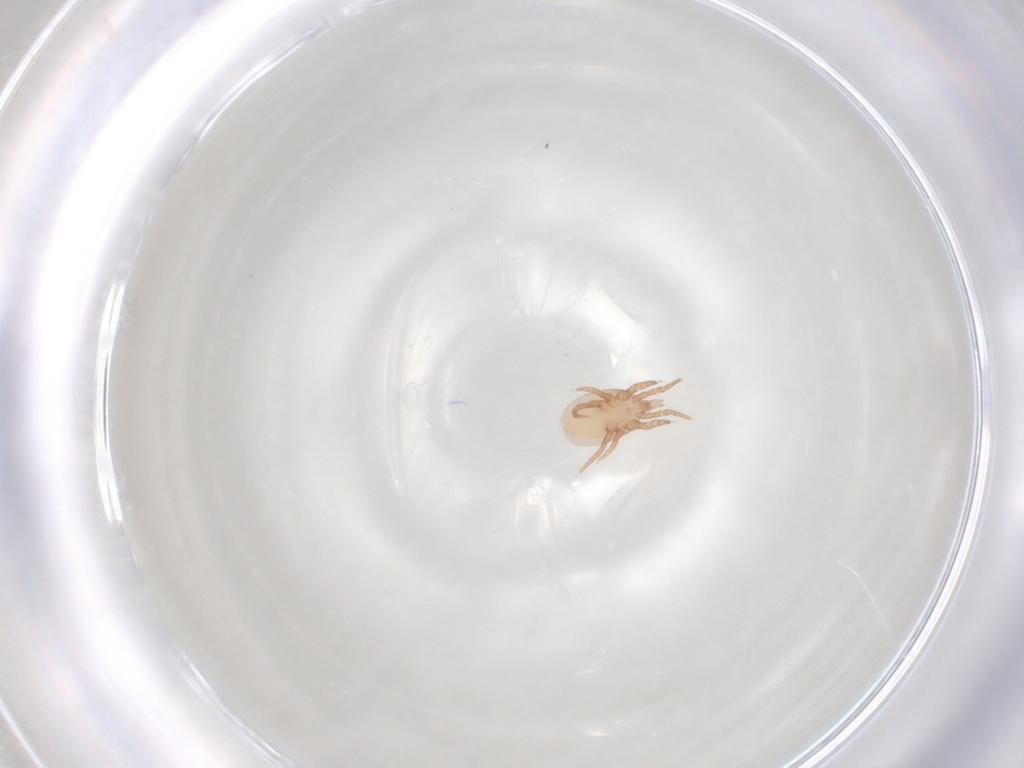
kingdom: Animalia
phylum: Arthropoda
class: Arachnida
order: Mesostigmata
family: Laelapidae
